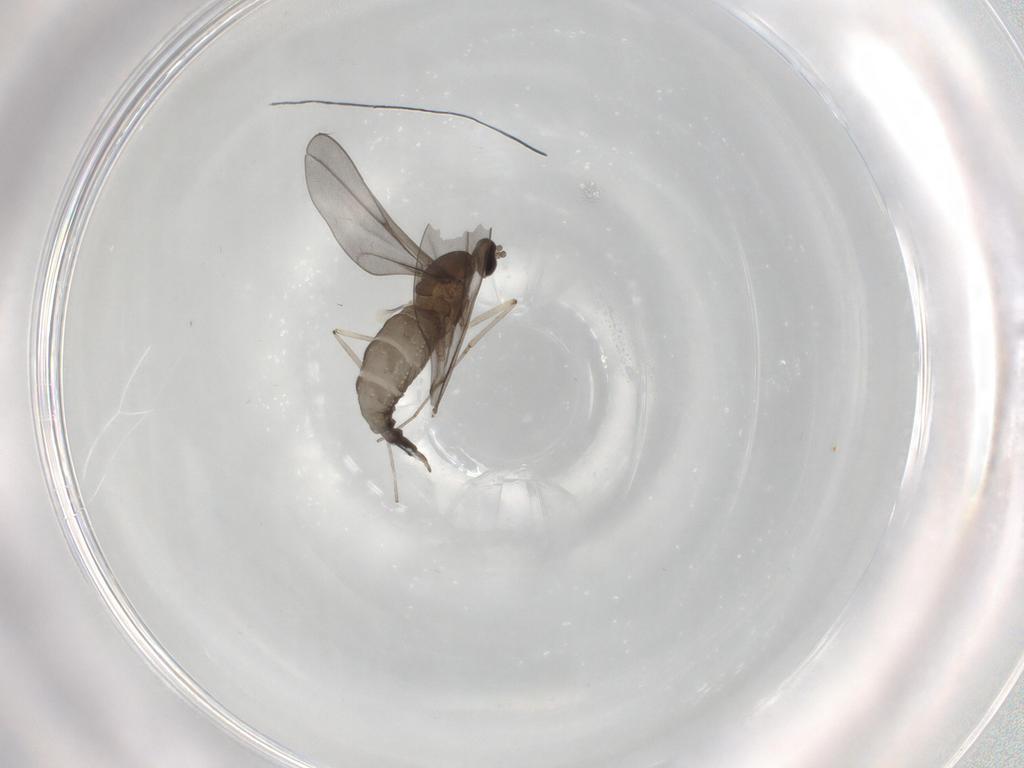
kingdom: Animalia
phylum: Arthropoda
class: Insecta
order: Diptera
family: Cecidomyiidae
